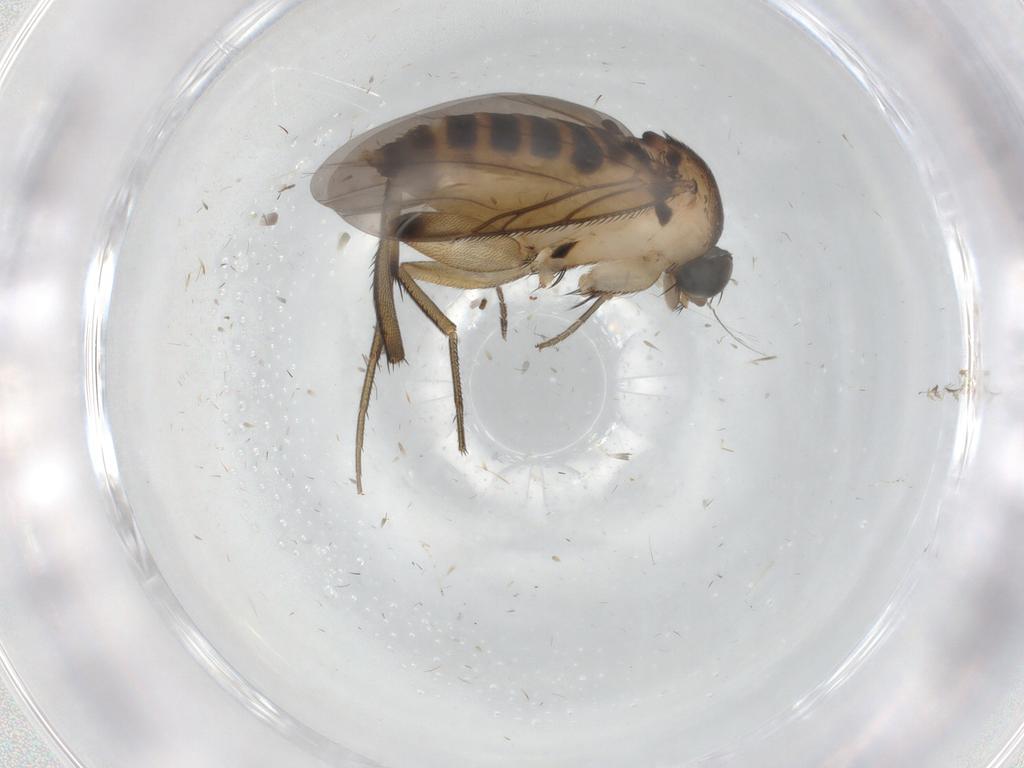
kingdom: Animalia
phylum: Arthropoda
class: Insecta
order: Diptera
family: Phoridae
